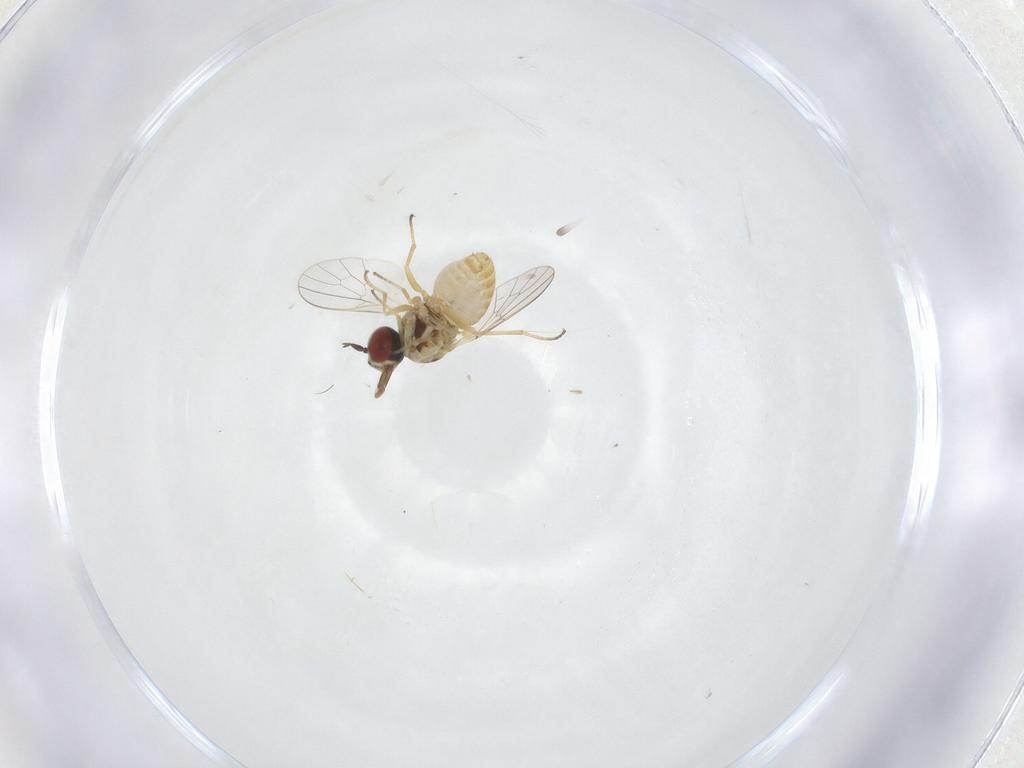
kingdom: Animalia
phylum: Arthropoda
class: Insecta
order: Diptera
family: Mythicomyiidae
